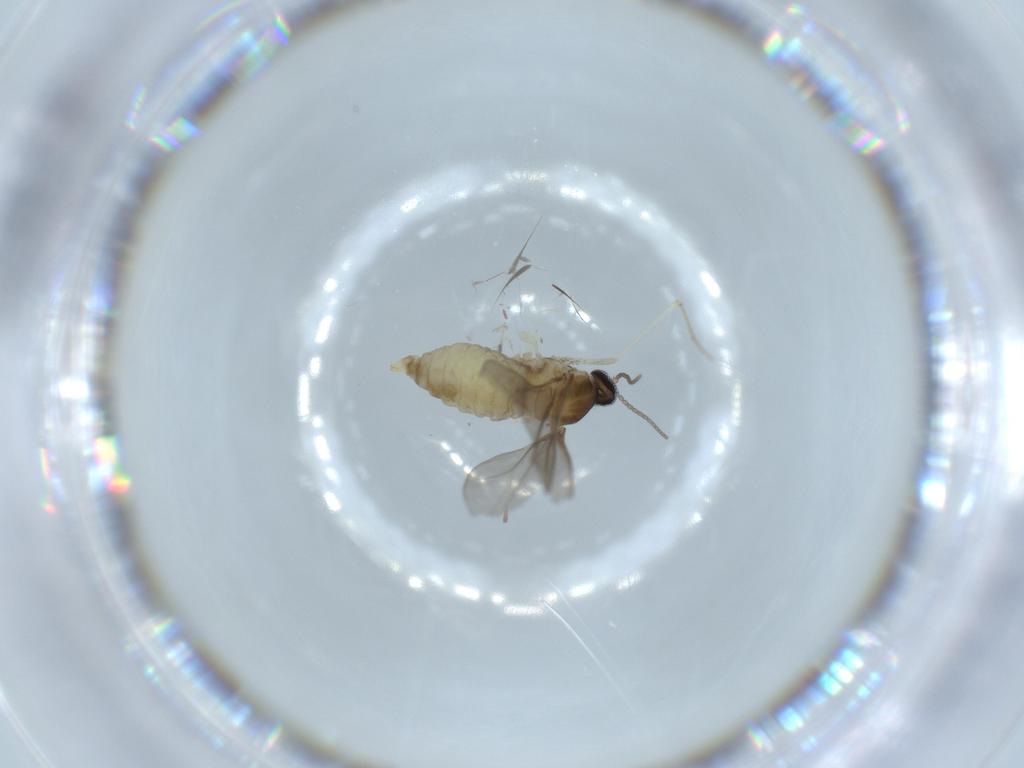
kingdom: Animalia
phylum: Arthropoda
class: Insecta
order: Diptera
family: Cecidomyiidae
